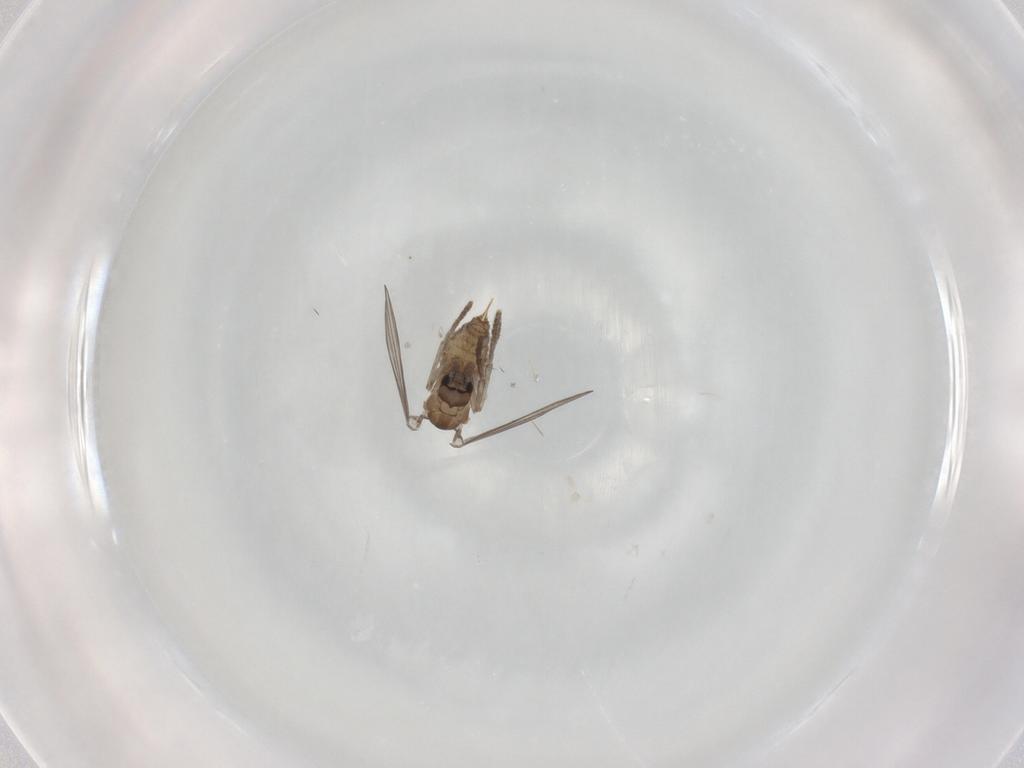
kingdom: Animalia
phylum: Arthropoda
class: Insecta
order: Diptera
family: Psychodidae
